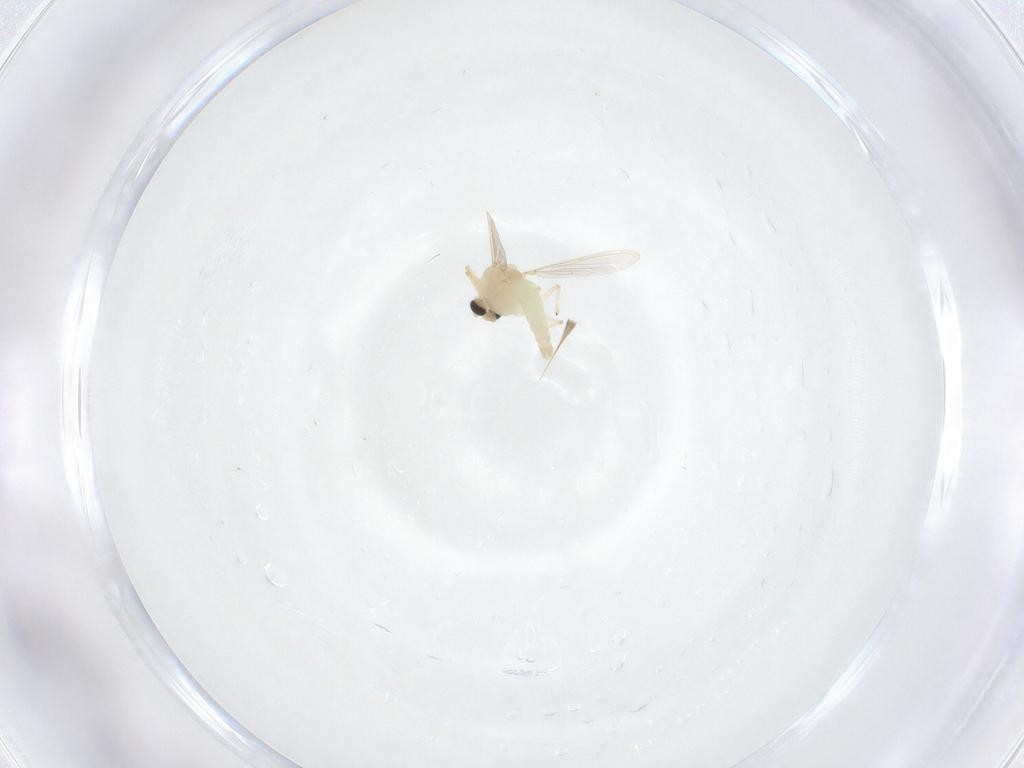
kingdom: Animalia
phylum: Arthropoda
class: Insecta
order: Diptera
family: Chironomidae
